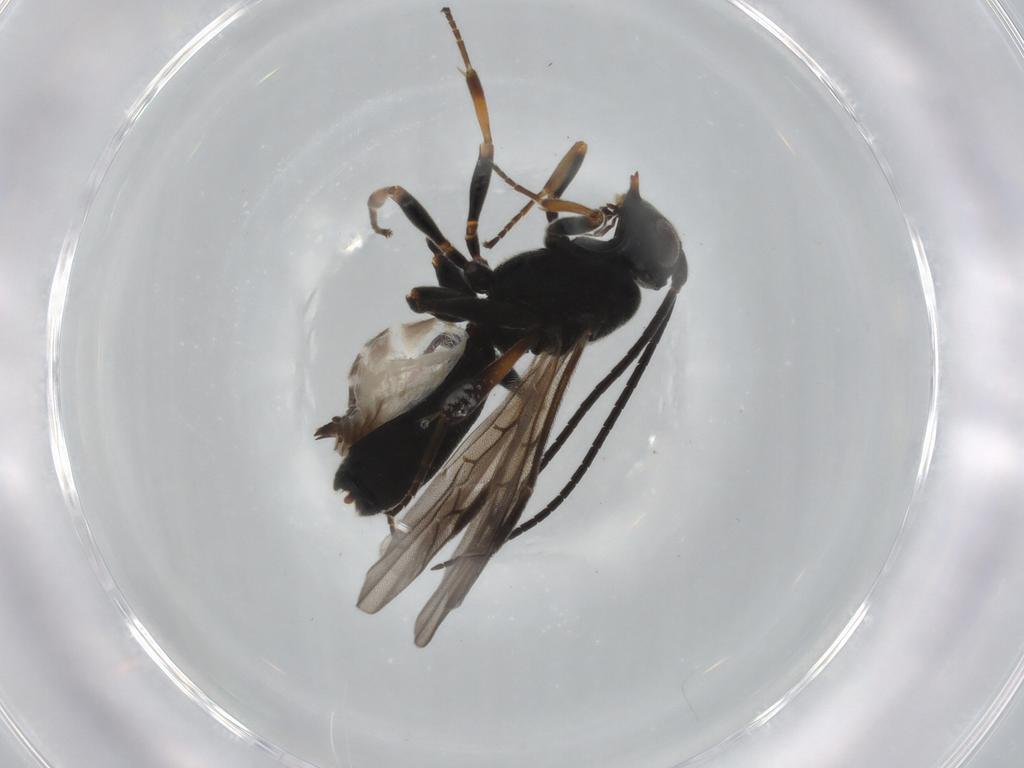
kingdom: Animalia
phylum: Arthropoda
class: Insecta
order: Hymenoptera
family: Braconidae
